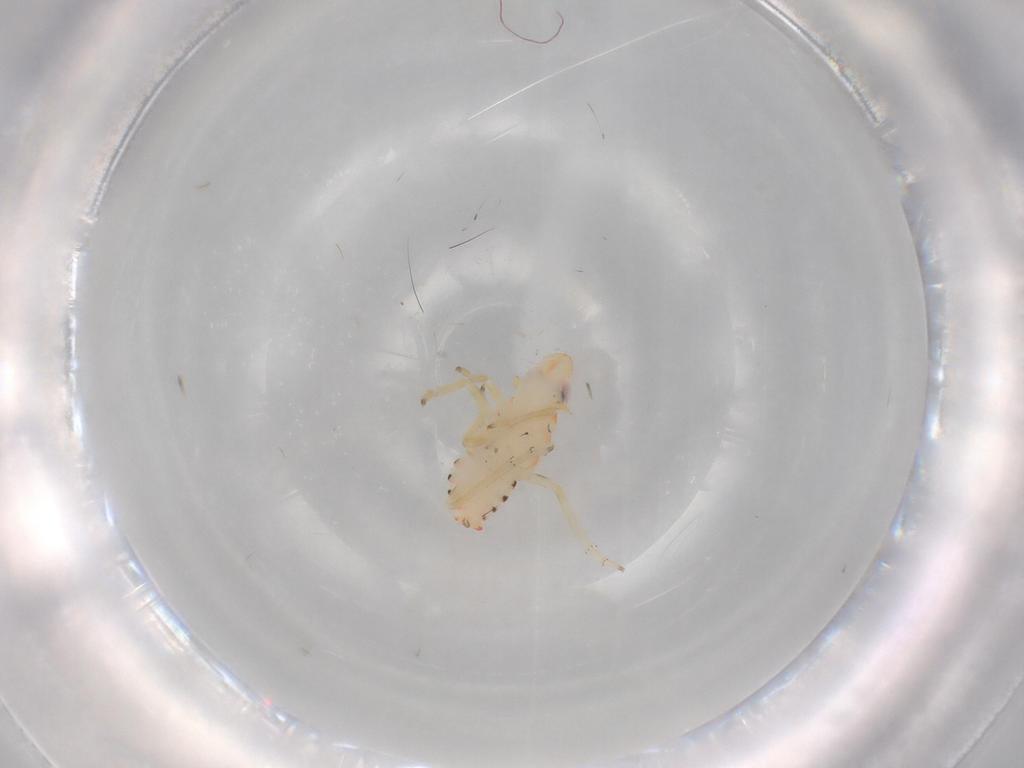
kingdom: Animalia
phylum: Arthropoda
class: Insecta
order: Hemiptera
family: Tropiduchidae
